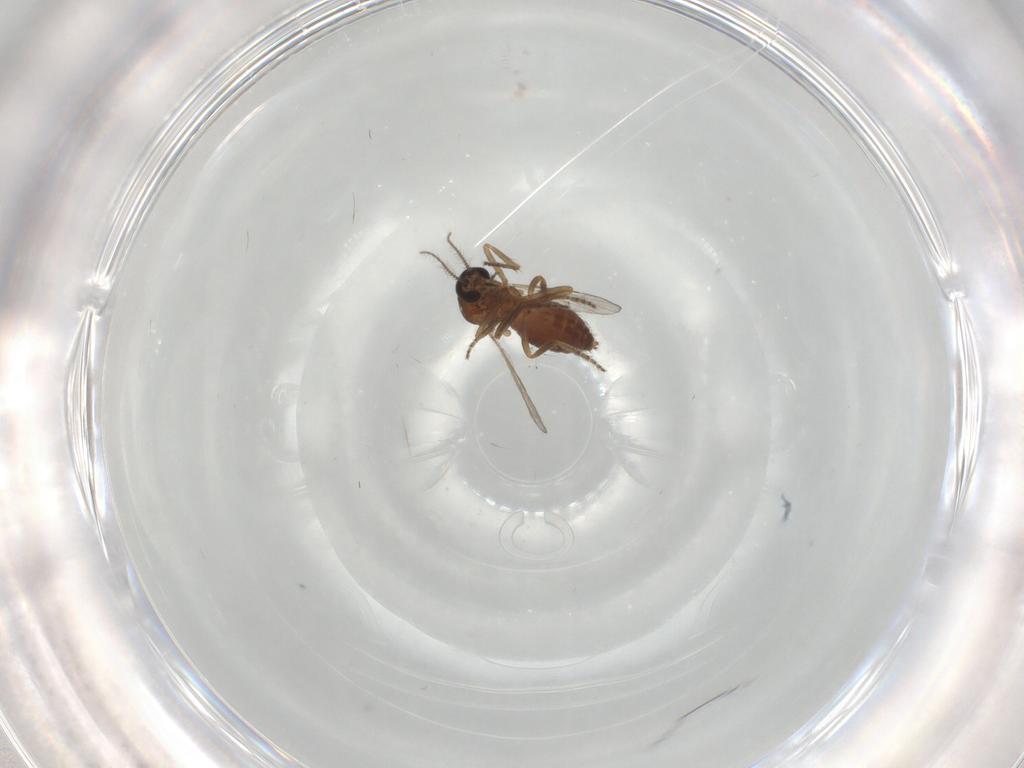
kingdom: Animalia
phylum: Arthropoda
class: Insecta
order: Diptera
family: Ceratopogonidae
